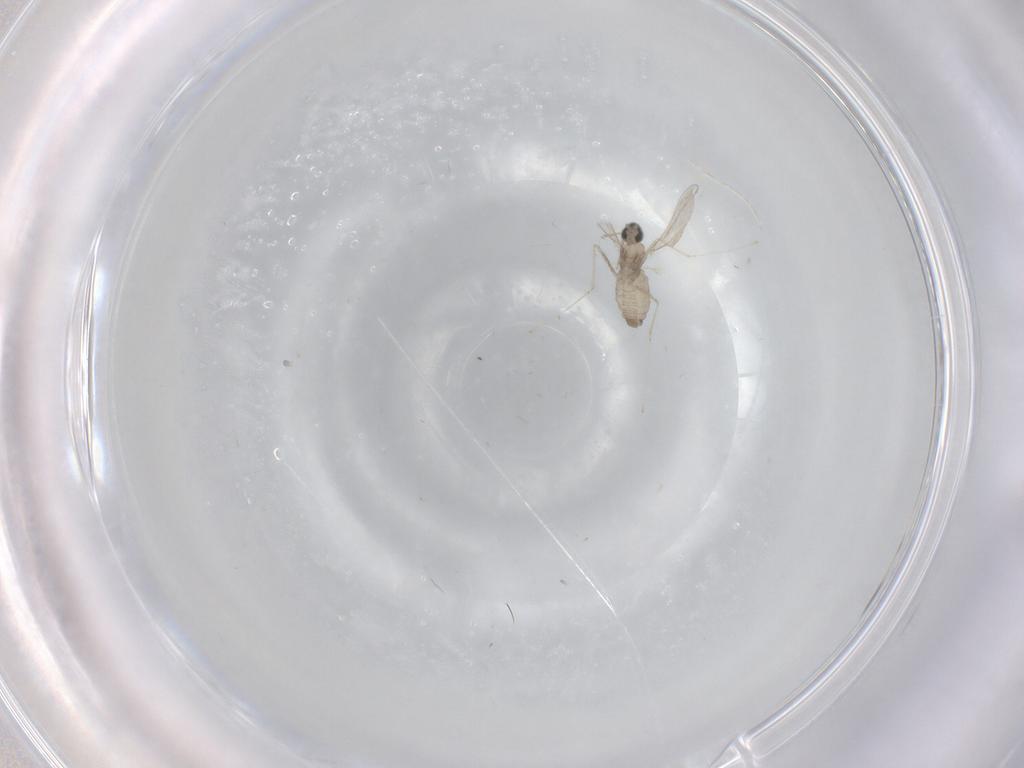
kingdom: Animalia
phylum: Arthropoda
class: Insecta
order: Diptera
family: Cecidomyiidae
